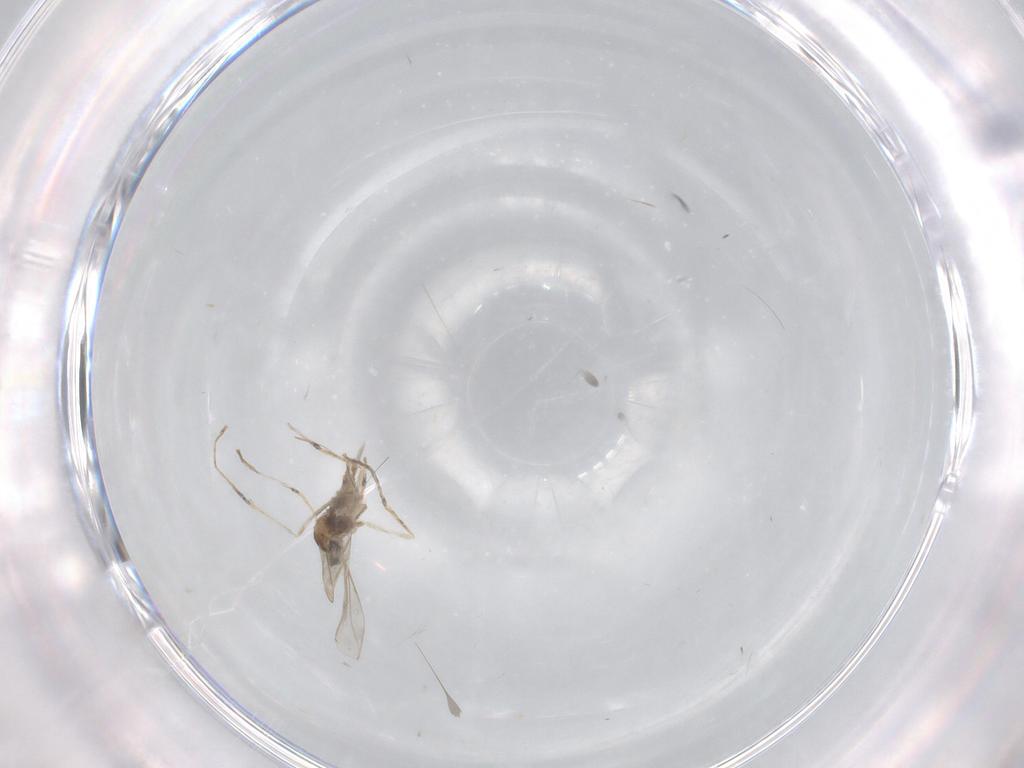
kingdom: Animalia
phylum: Arthropoda
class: Insecta
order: Diptera
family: Cecidomyiidae
